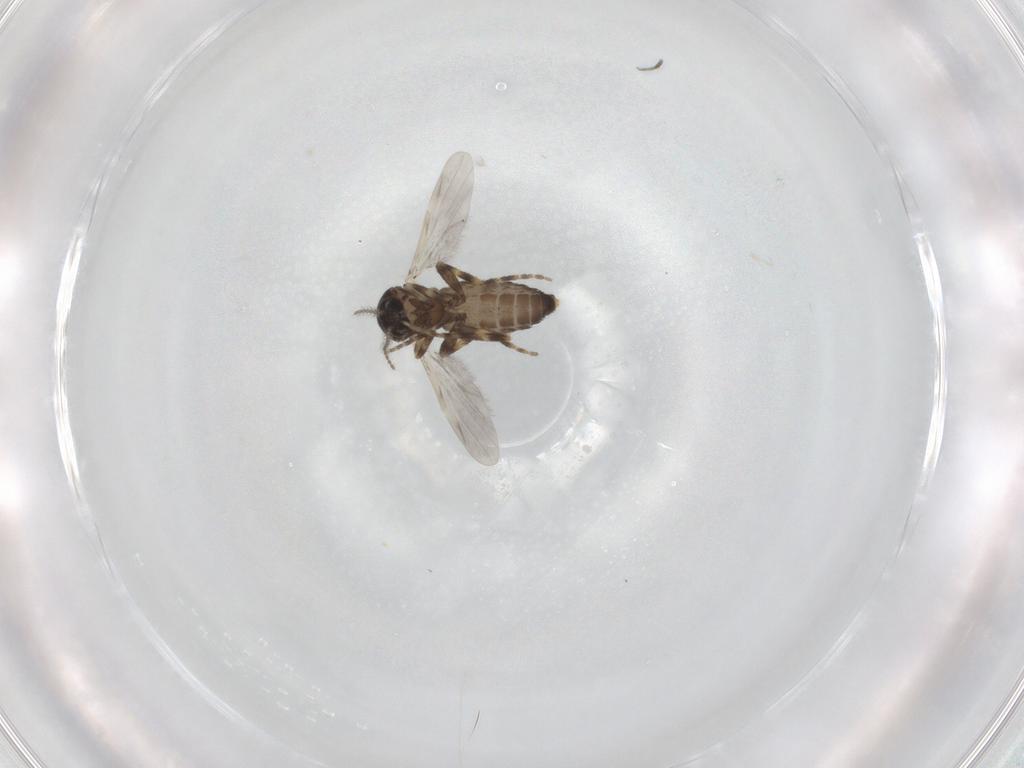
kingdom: Animalia
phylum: Arthropoda
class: Insecta
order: Diptera
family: Ceratopogonidae
